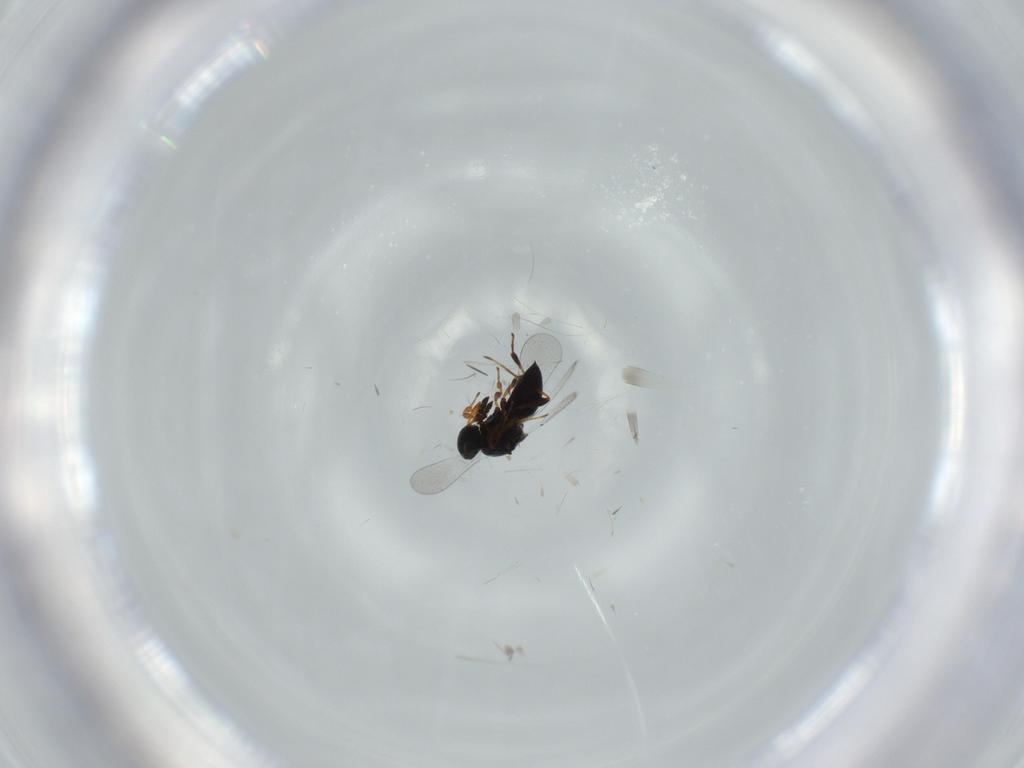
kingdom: Animalia
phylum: Arthropoda
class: Insecta
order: Hymenoptera
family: Platygastridae
